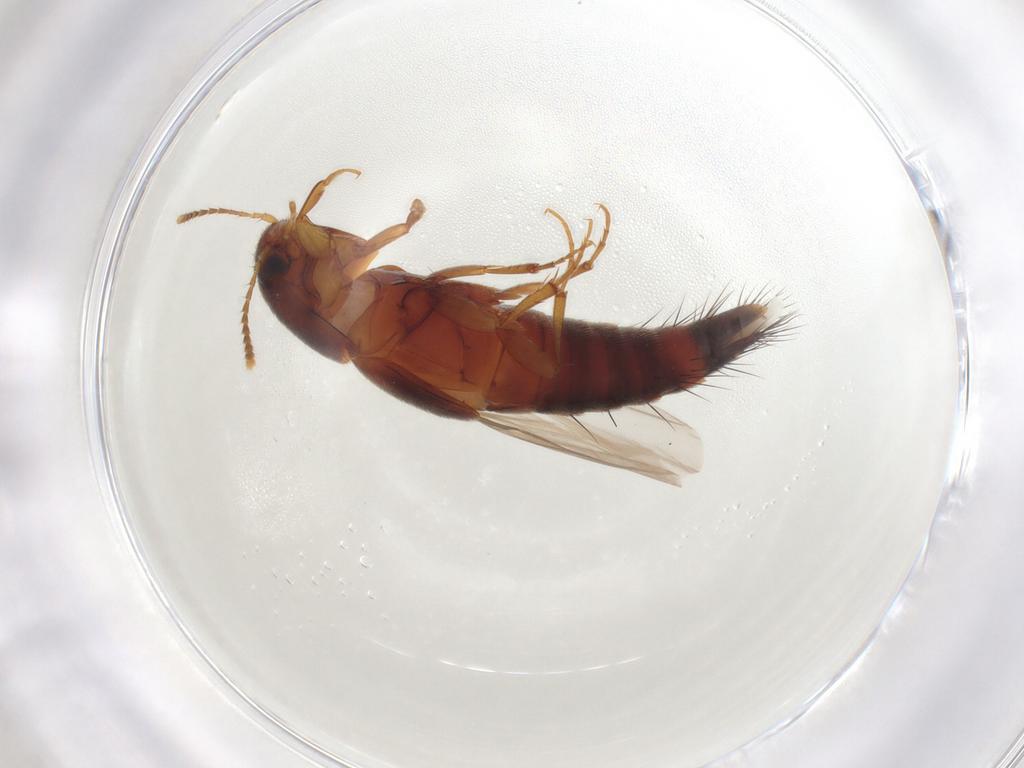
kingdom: Animalia
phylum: Arthropoda
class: Insecta
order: Coleoptera
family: Staphylinidae
